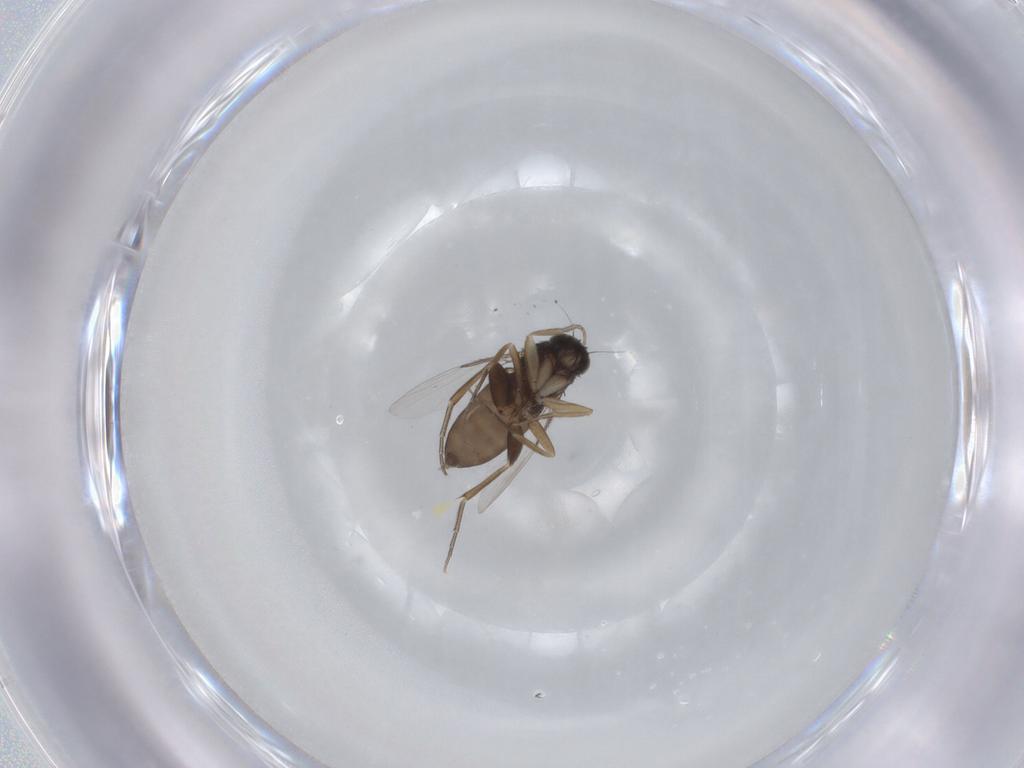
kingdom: Animalia
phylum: Arthropoda
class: Insecta
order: Diptera
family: Phoridae
